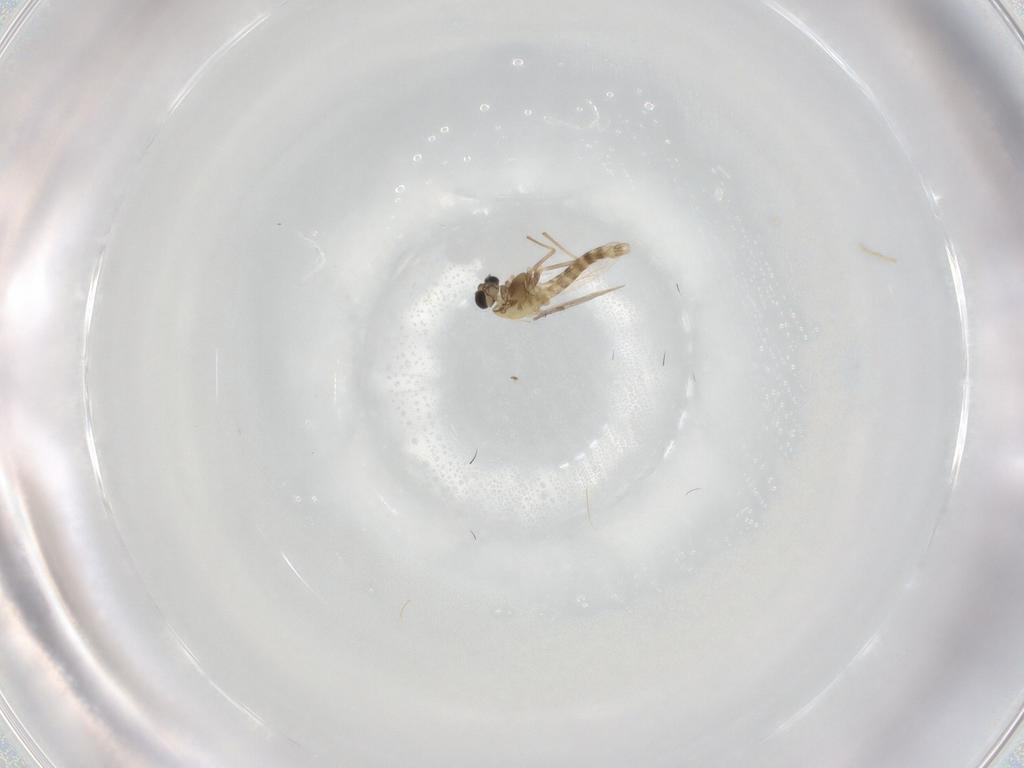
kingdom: Animalia
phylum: Arthropoda
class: Insecta
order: Diptera
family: Chironomidae
